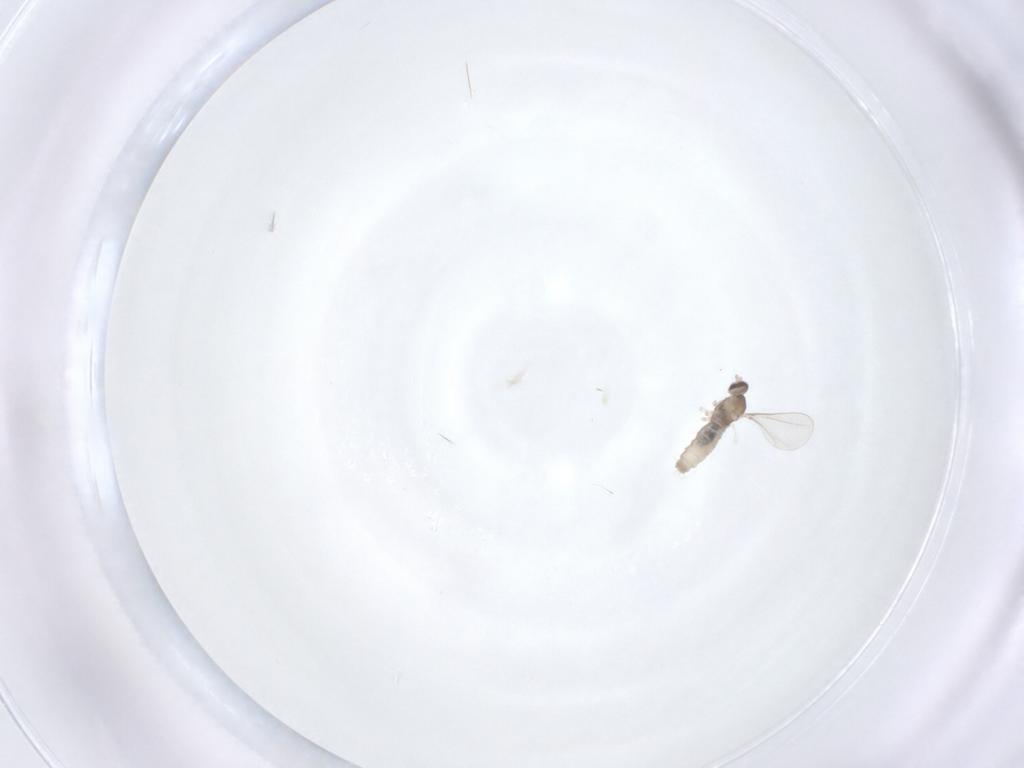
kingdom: Animalia
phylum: Arthropoda
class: Insecta
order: Diptera
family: Cecidomyiidae
